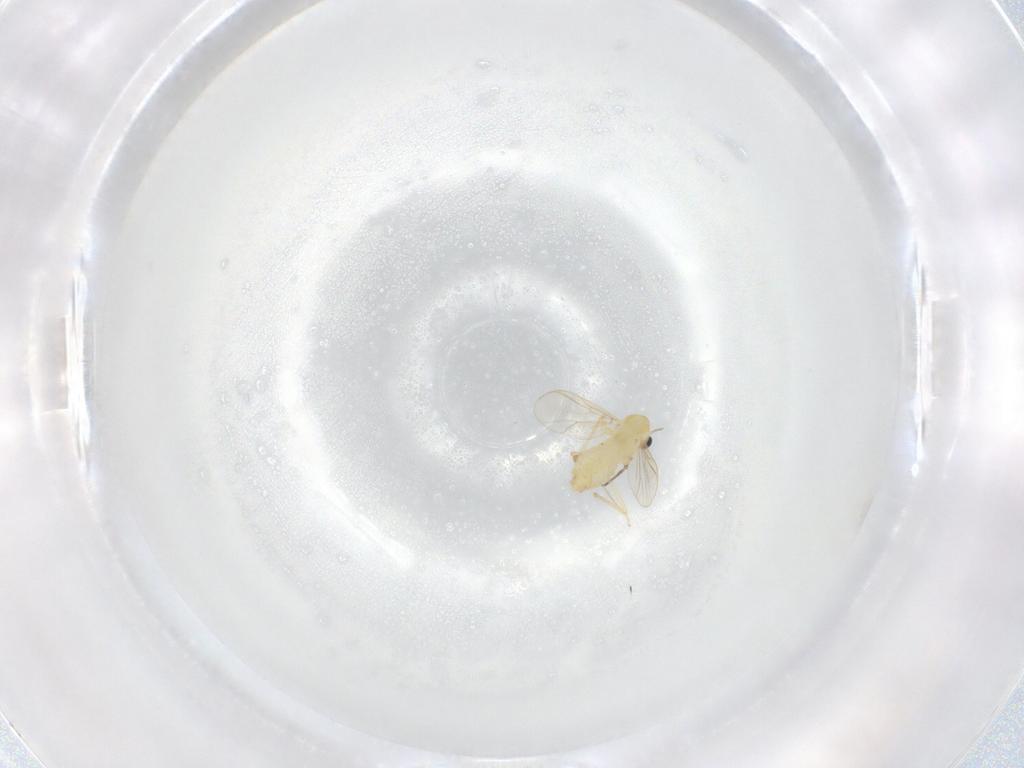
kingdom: Animalia
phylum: Arthropoda
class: Insecta
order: Diptera
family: Chironomidae
